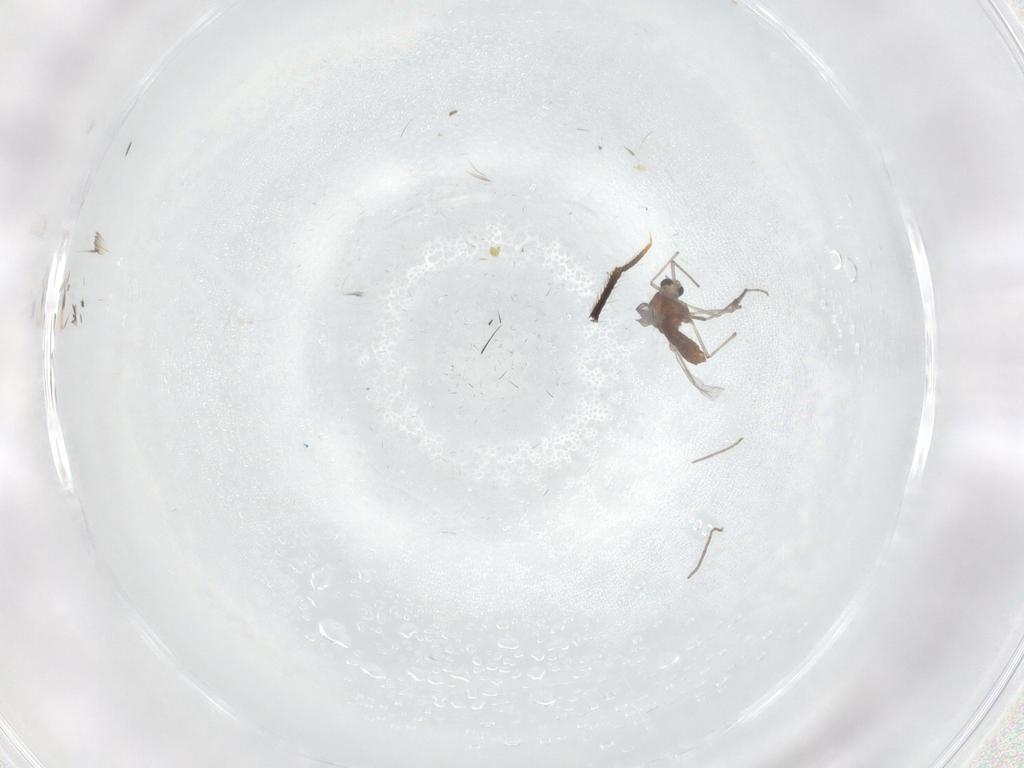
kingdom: Animalia
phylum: Arthropoda
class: Insecta
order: Diptera
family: Chironomidae
